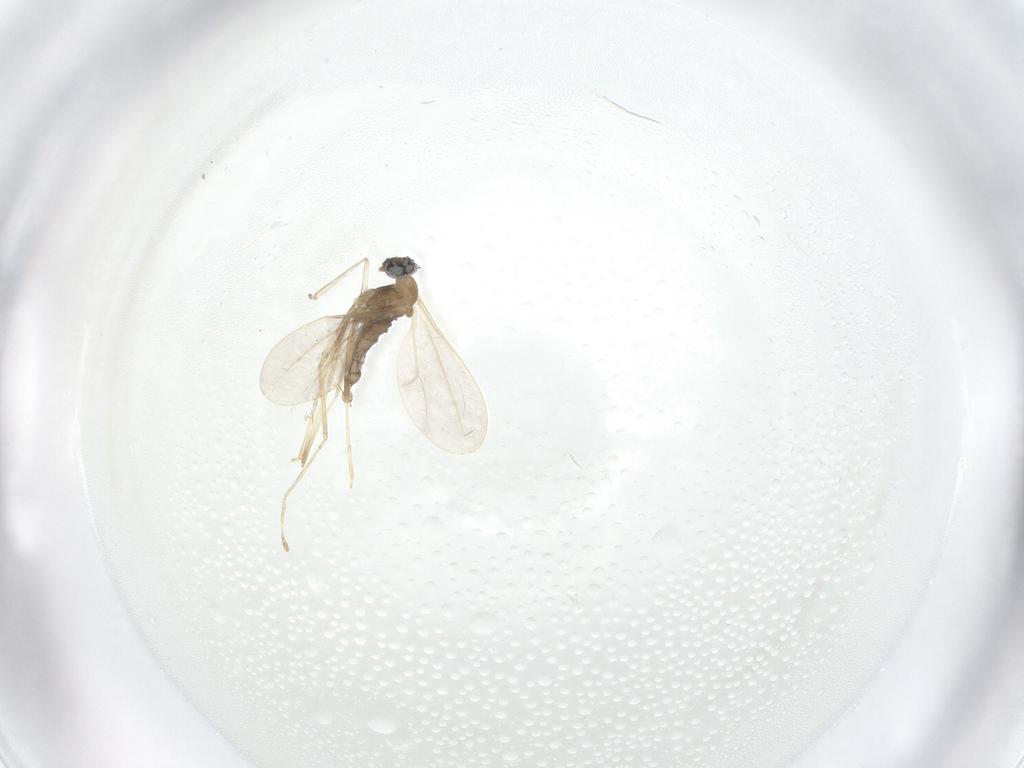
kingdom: Animalia
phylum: Arthropoda
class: Insecta
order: Diptera
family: Cecidomyiidae
